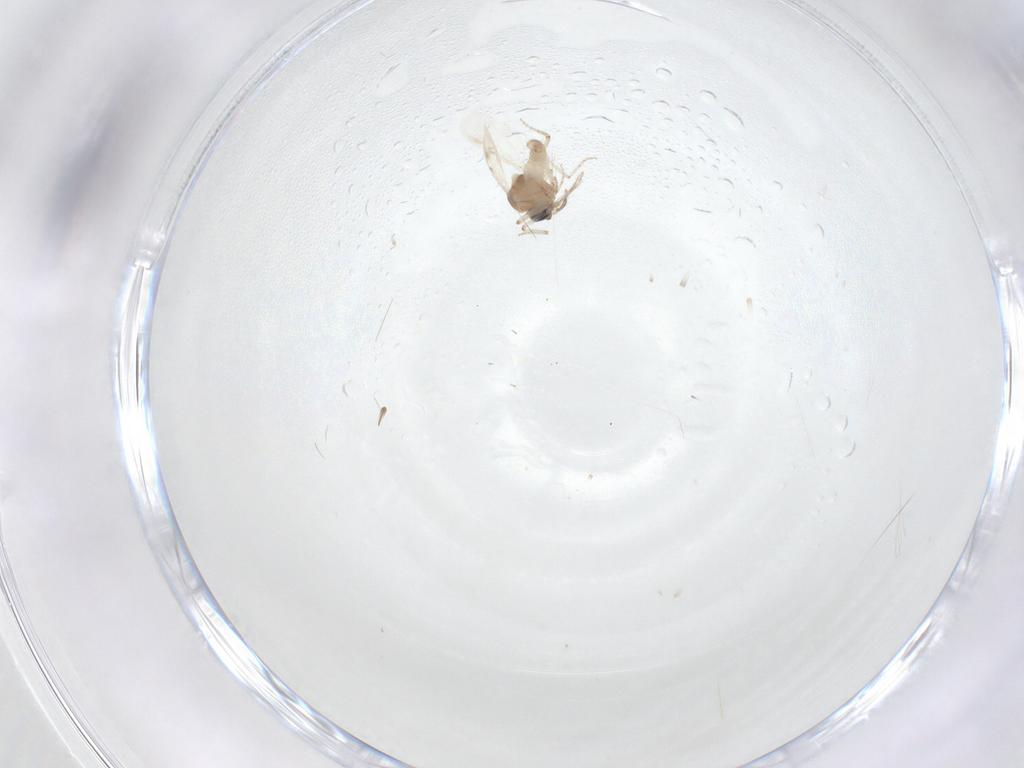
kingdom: Animalia
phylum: Arthropoda
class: Insecta
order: Diptera
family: Ceratopogonidae
